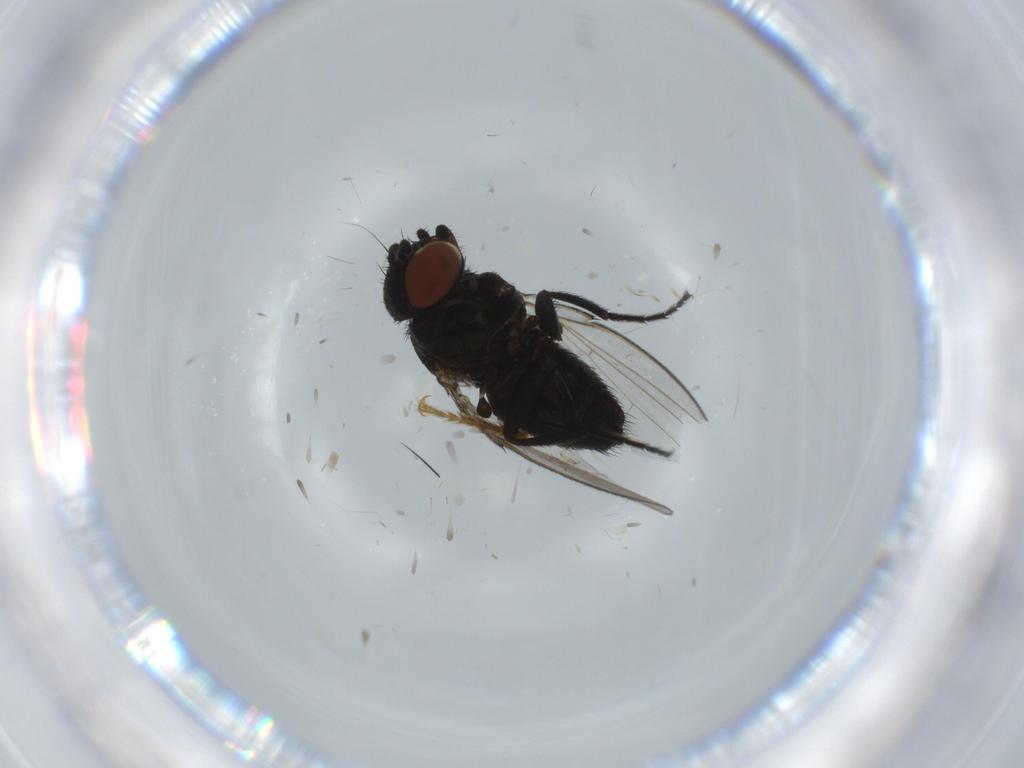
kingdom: Animalia
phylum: Arthropoda
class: Insecta
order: Diptera
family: Milichiidae
